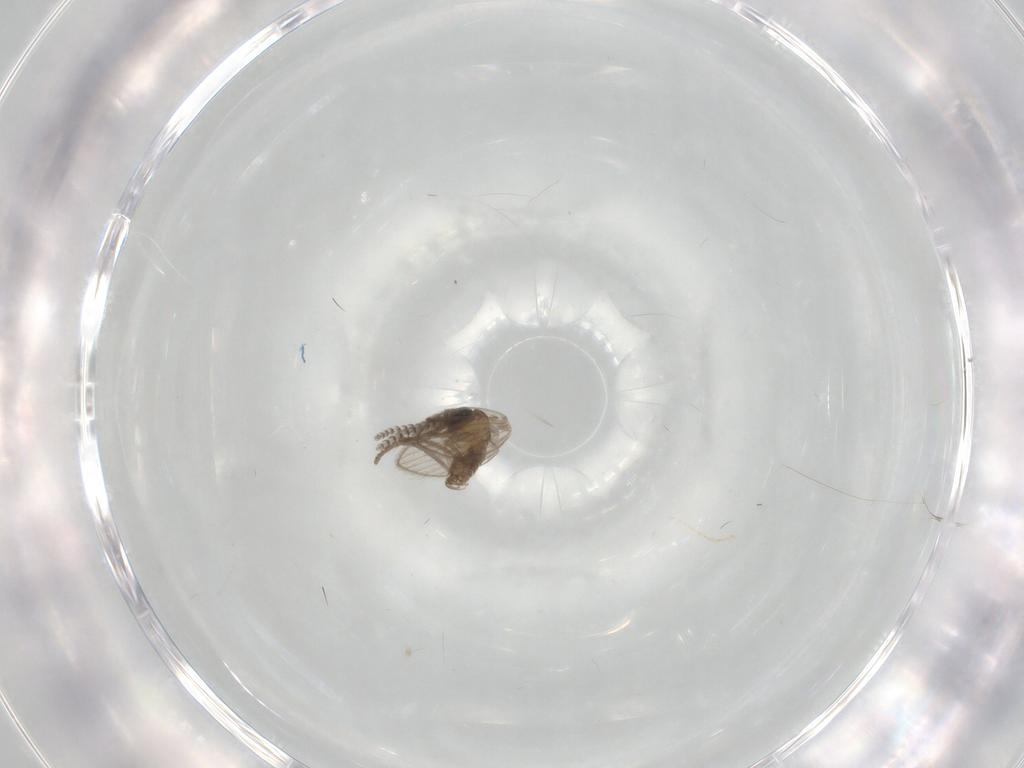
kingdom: Animalia
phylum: Arthropoda
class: Insecta
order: Diptera
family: Psychodidae
